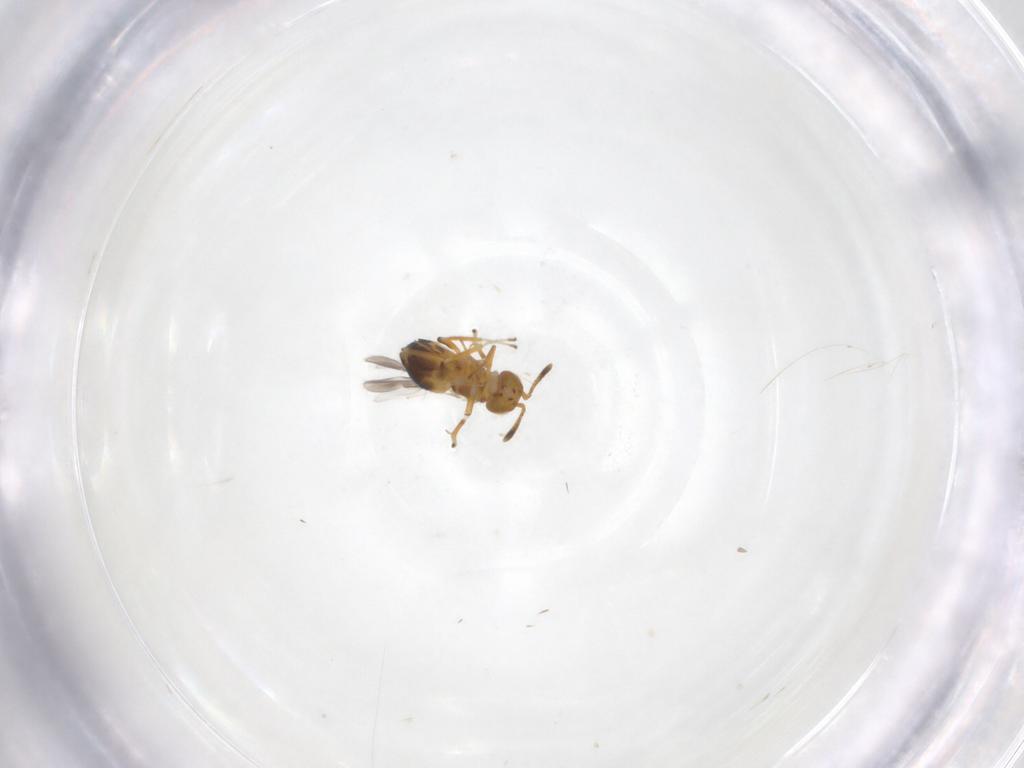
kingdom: Animalia
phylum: Arthropoda
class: Insecta
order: Hymenoptera
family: Encyrtidae
